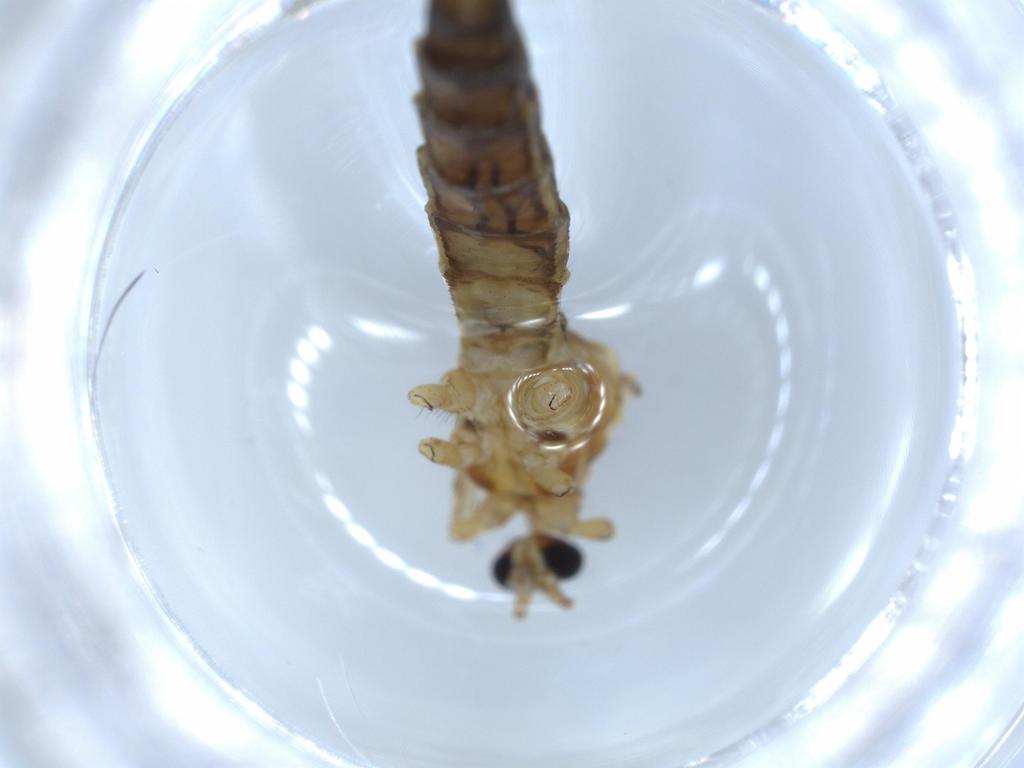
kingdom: Animalia
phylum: Arthropoda
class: Insecta
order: Diptera
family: Limoniidae
